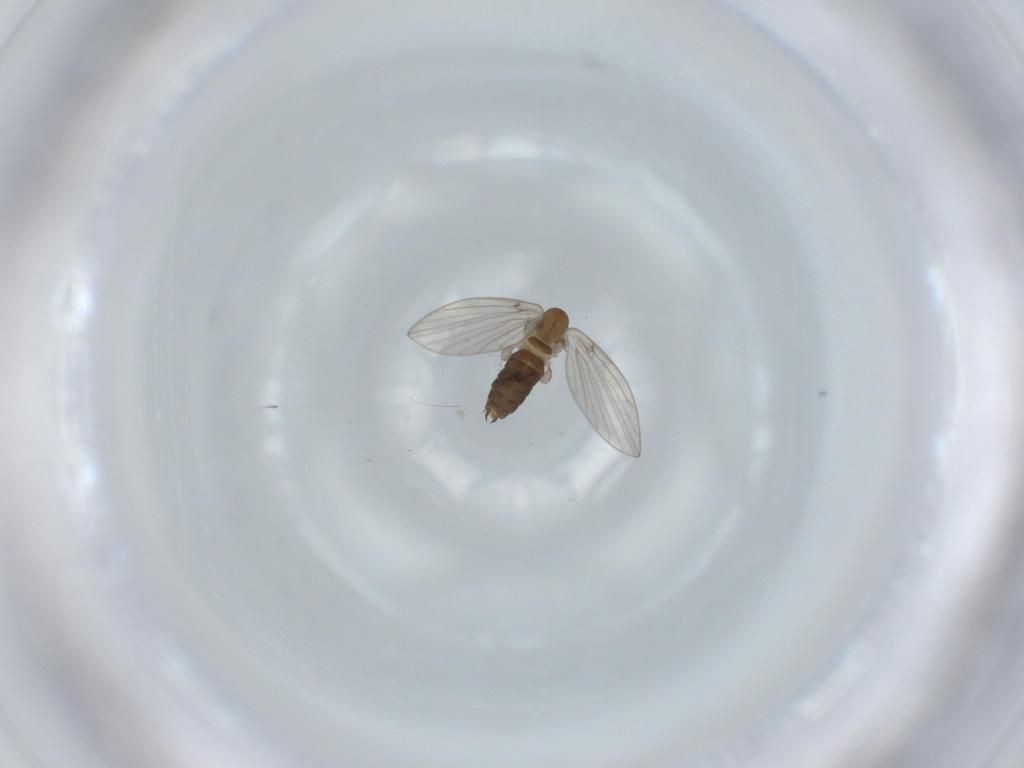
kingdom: Animalia
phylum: Arthropoda
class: Insecta
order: Diptera
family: Psychodidae
